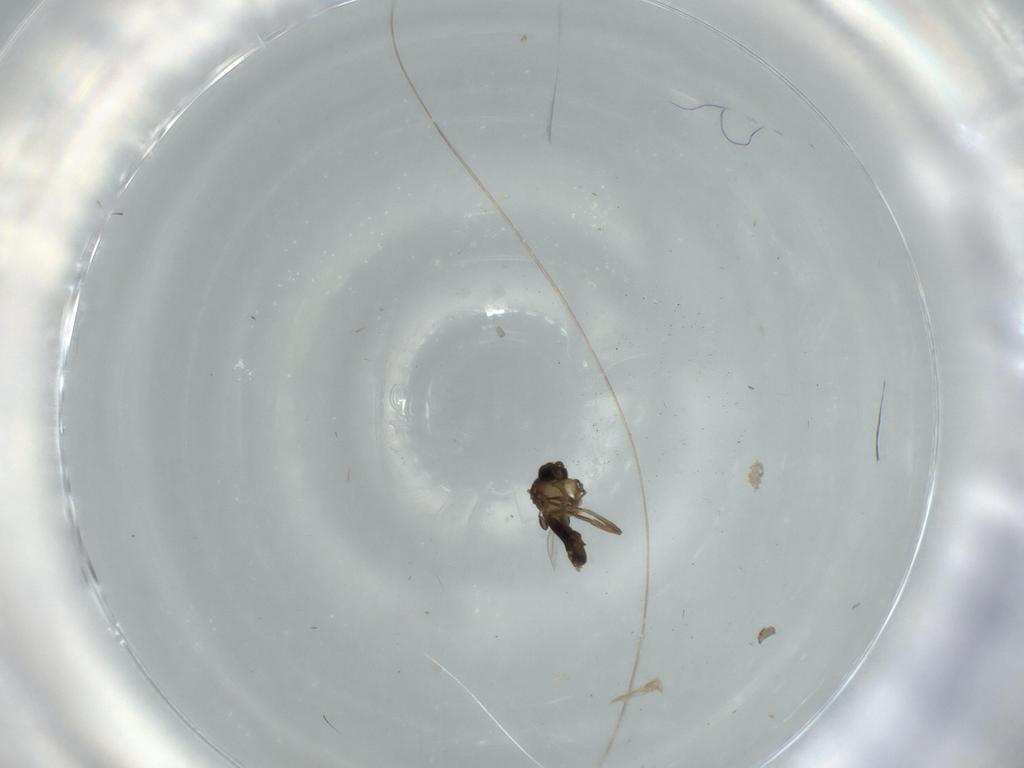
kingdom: Animalia
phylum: Arthropoda
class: Insecta
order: Diptera
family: Phoridae
